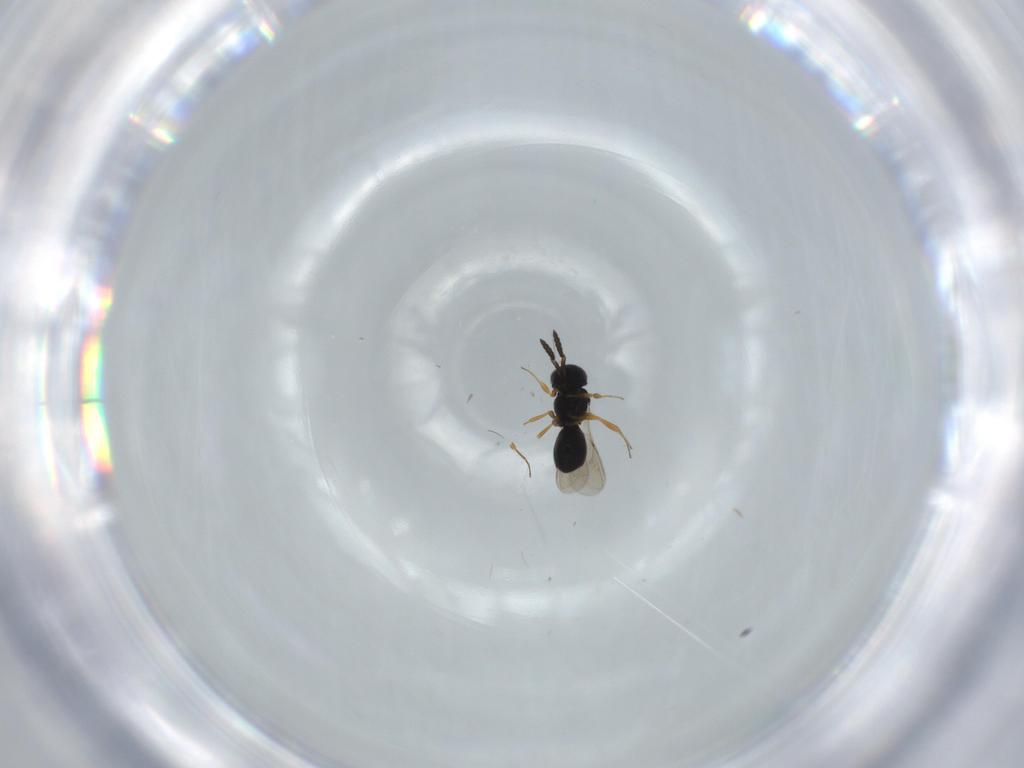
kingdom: Animalia
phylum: Arthropoda
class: Insecta
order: Hymenoptera
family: Scelionidae
